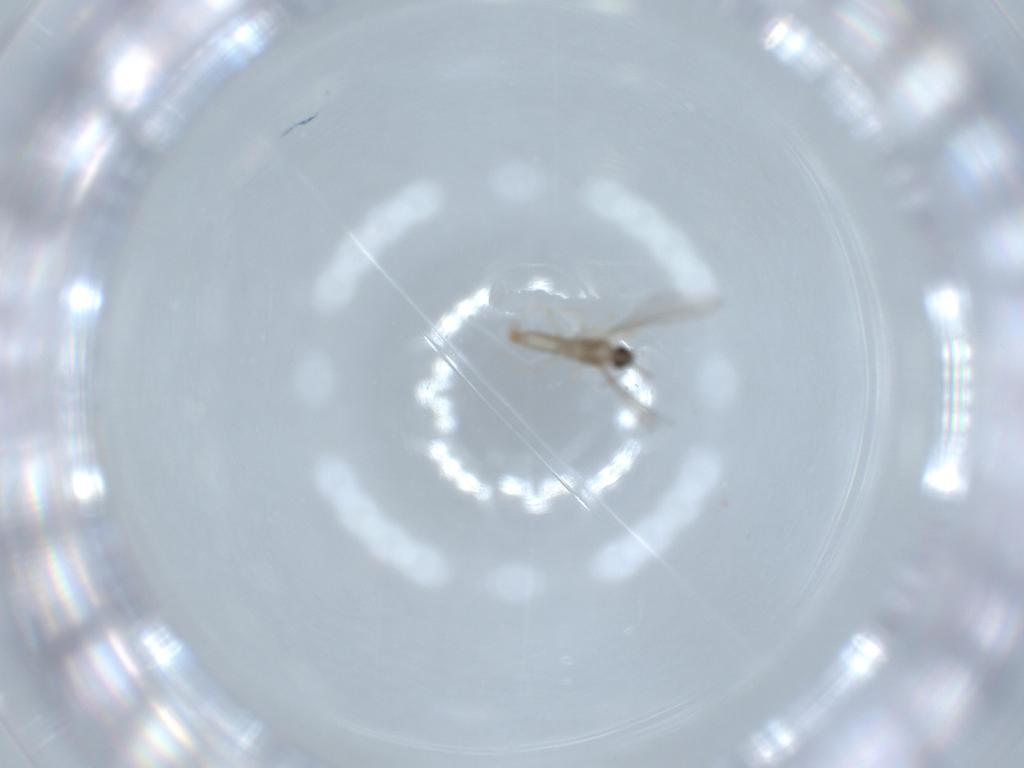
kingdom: Animalia
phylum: Arthropoda
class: Insecta
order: Diptera
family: Cecidomyiidae
